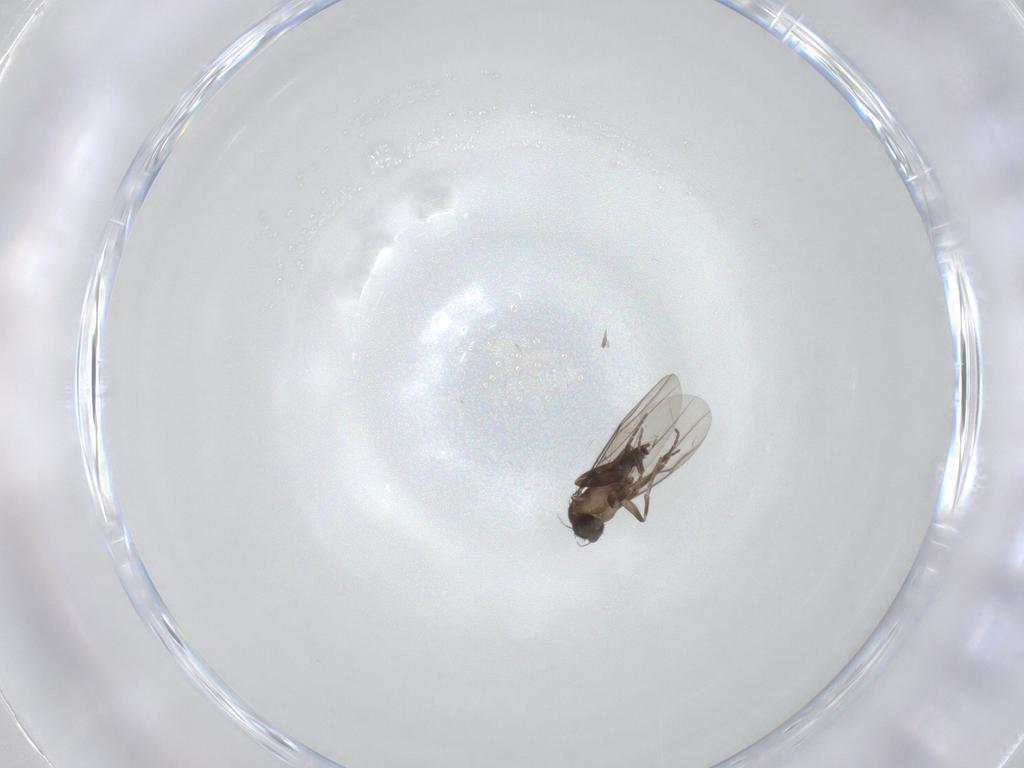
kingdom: Animalia
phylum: Arthropoda
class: Insecta
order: Diptera
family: Phoridae
